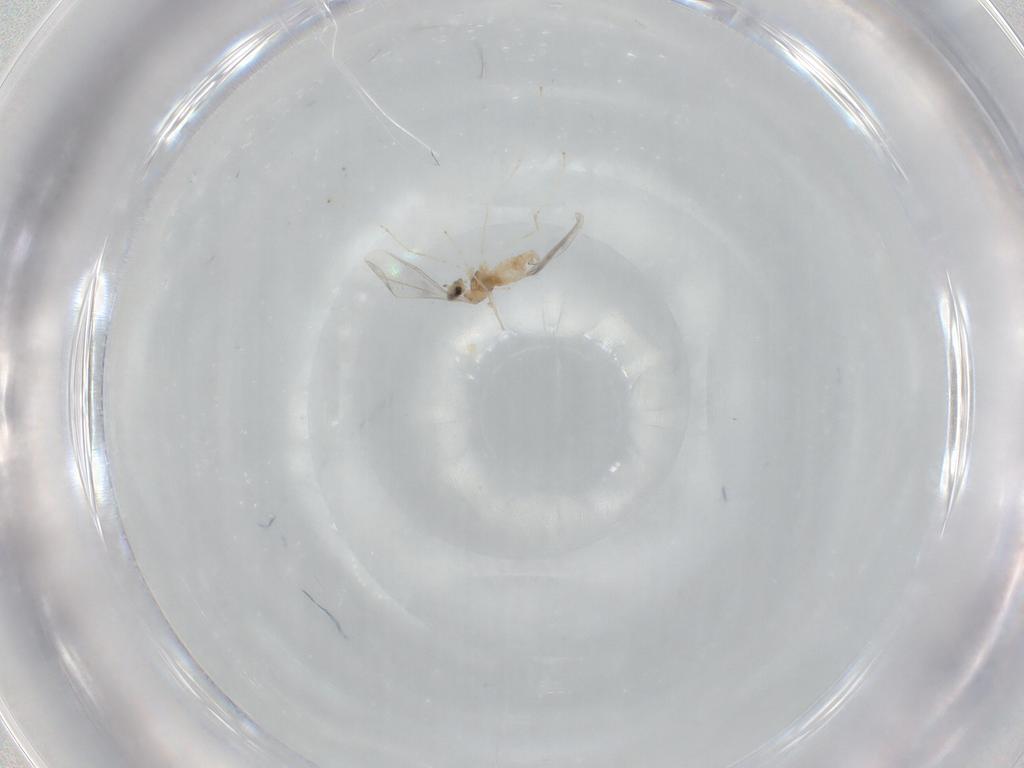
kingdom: Animalia
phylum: Arthropoda
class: Insecta
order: Diptera
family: Cecidomyiidae
